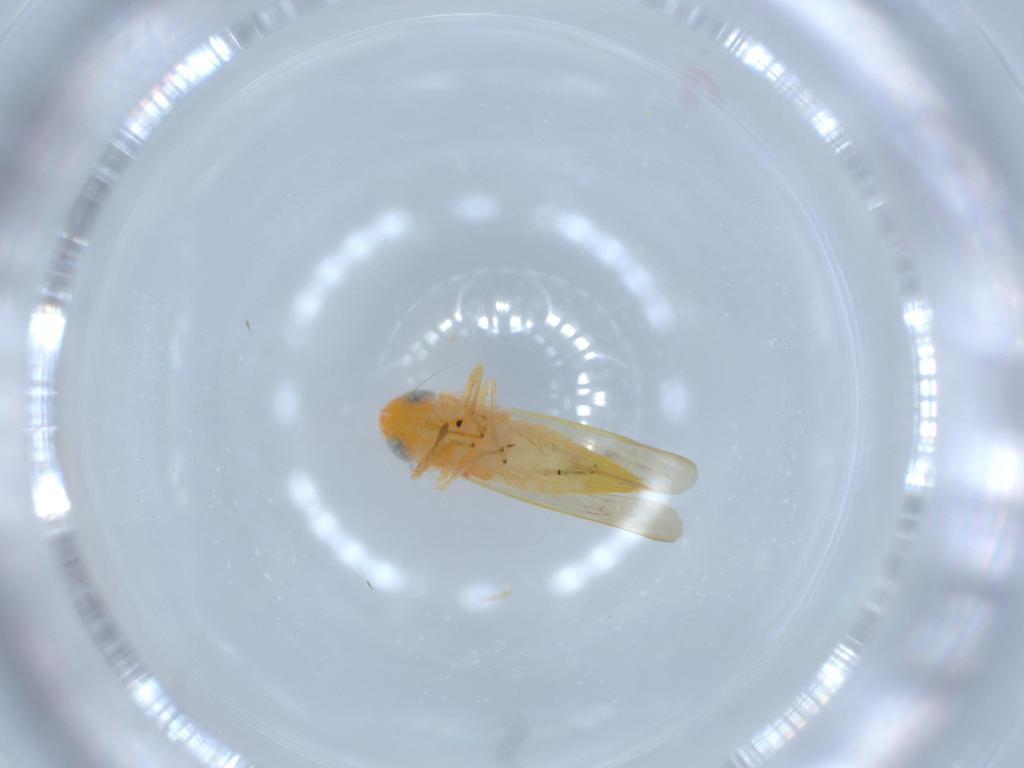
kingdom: Animalia
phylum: Arthropoda
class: Insecta
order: Hemiptera
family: Cicadellidae
